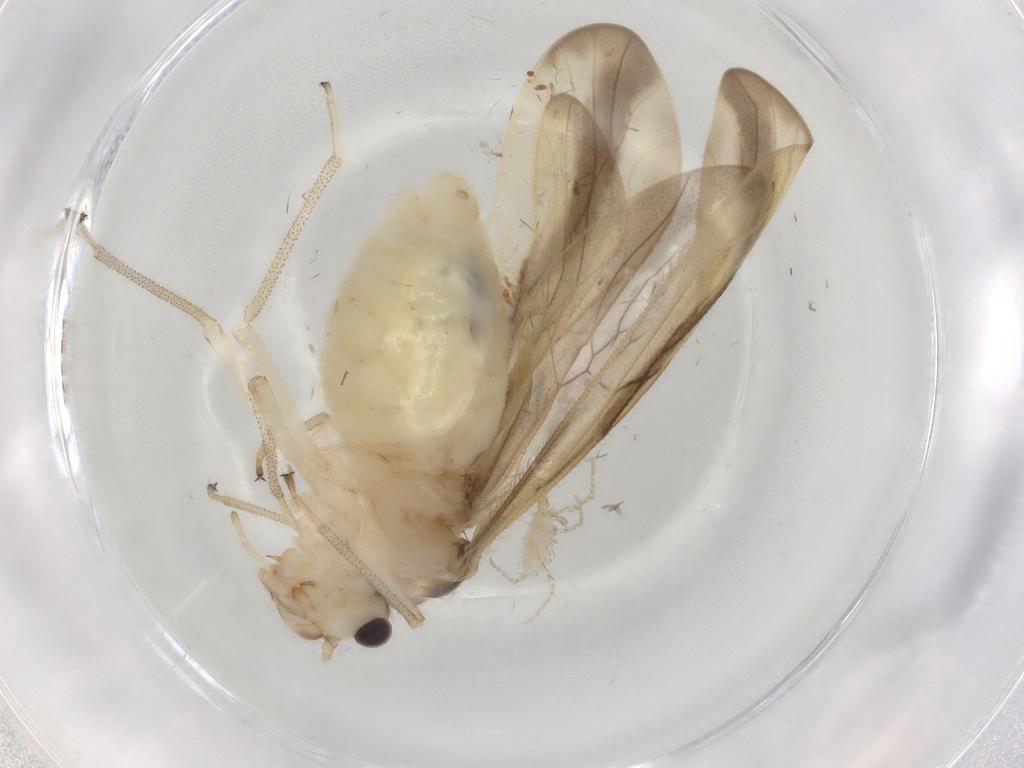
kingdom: Animalia
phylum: Arthropoda
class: Insecta
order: Psocodea
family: Amphipsocidae
